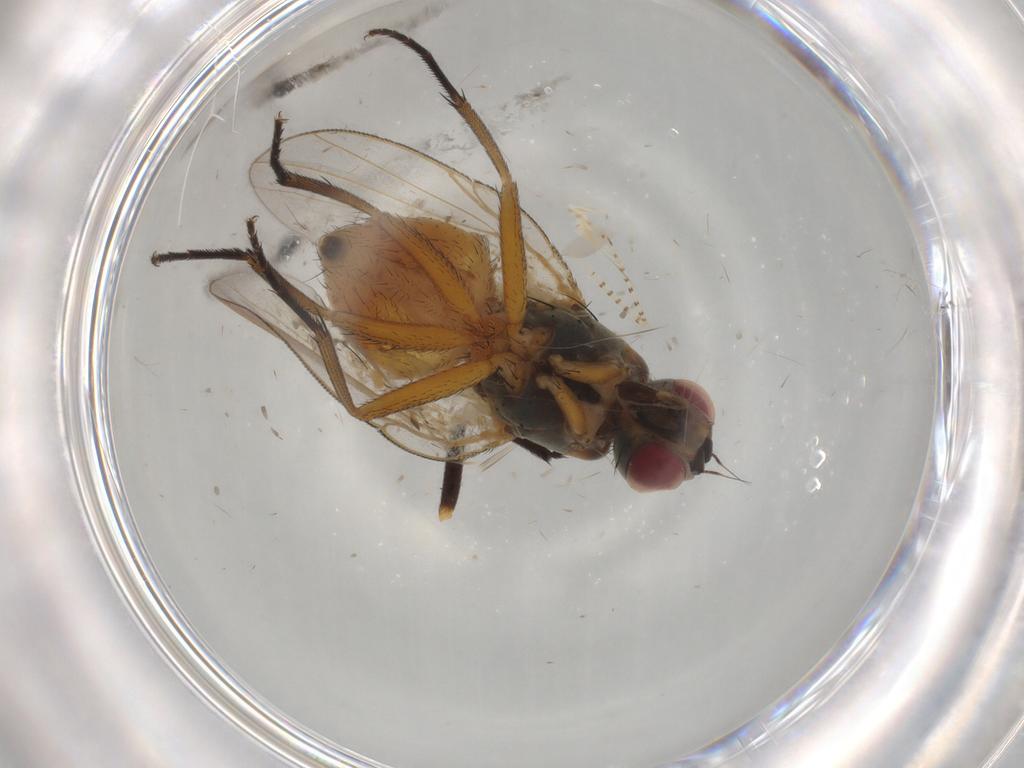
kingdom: Animalia
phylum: Arthropoda
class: Insecta
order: Diptera
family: Muscidae
